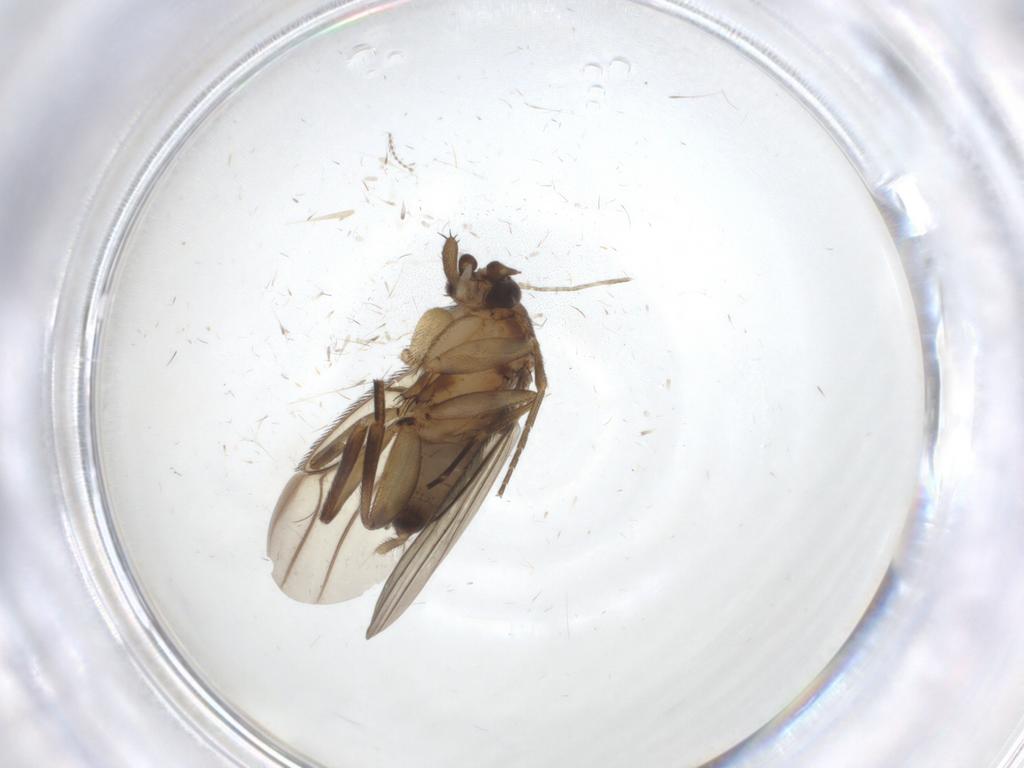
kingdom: Animalia
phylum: Arthropoda
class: Insecta
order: Diptera
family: Phoridae
